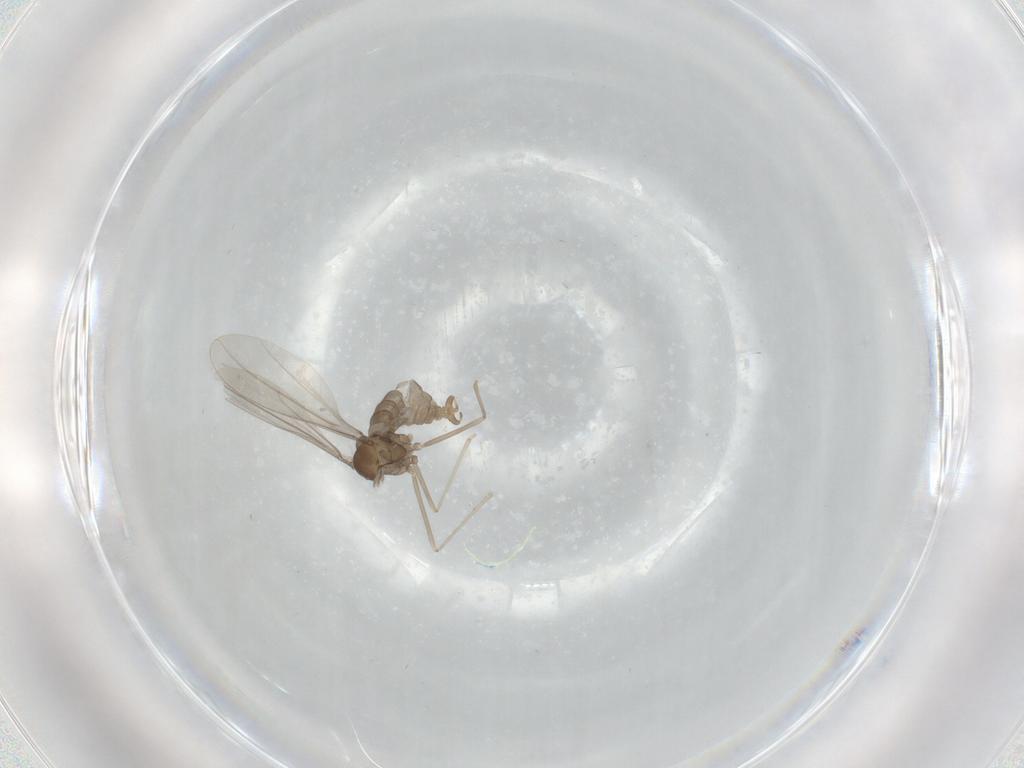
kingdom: Animalia
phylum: Arthropoda
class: Insecta
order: Diptera
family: Cecidomyiidae
